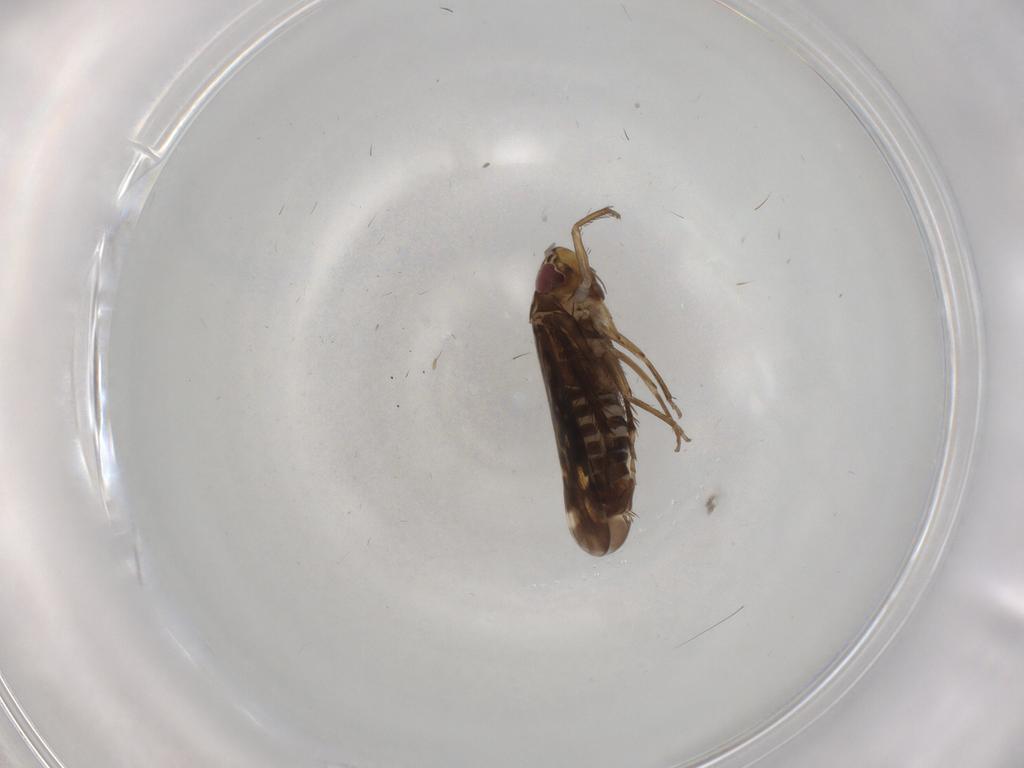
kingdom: Animalia
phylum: Arthropoda
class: Insecta
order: Hemiptera
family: Cicadellidae
